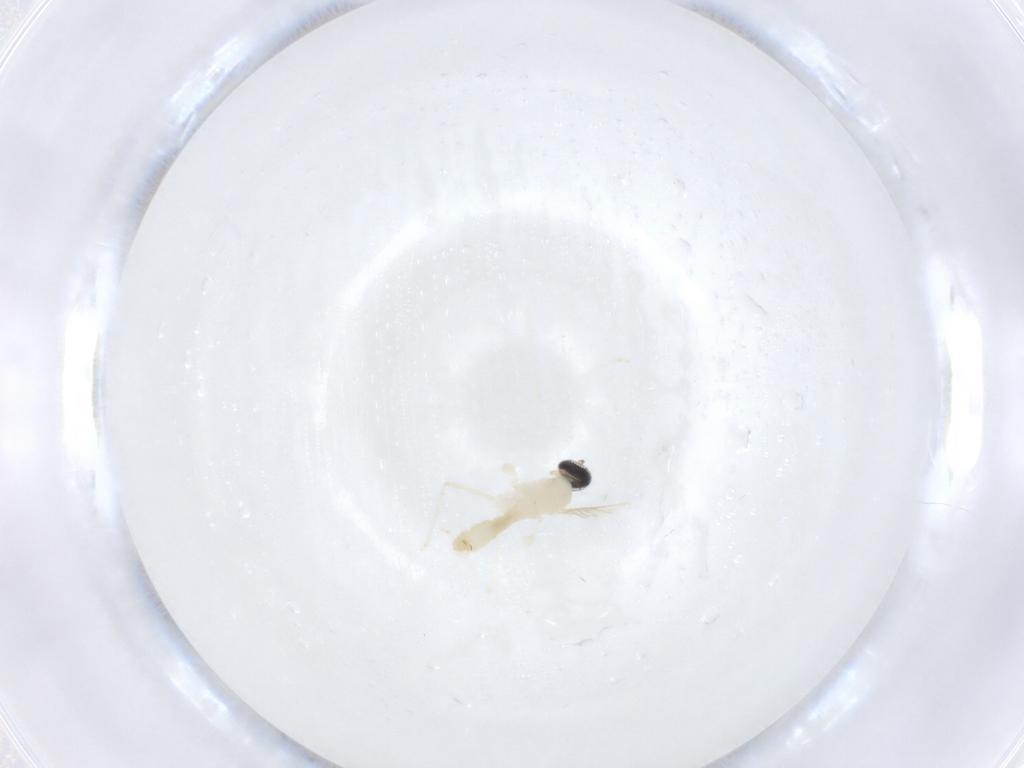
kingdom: Animalia
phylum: Arthropoda
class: Insecta
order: Diptera
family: Cecidomyiidae
